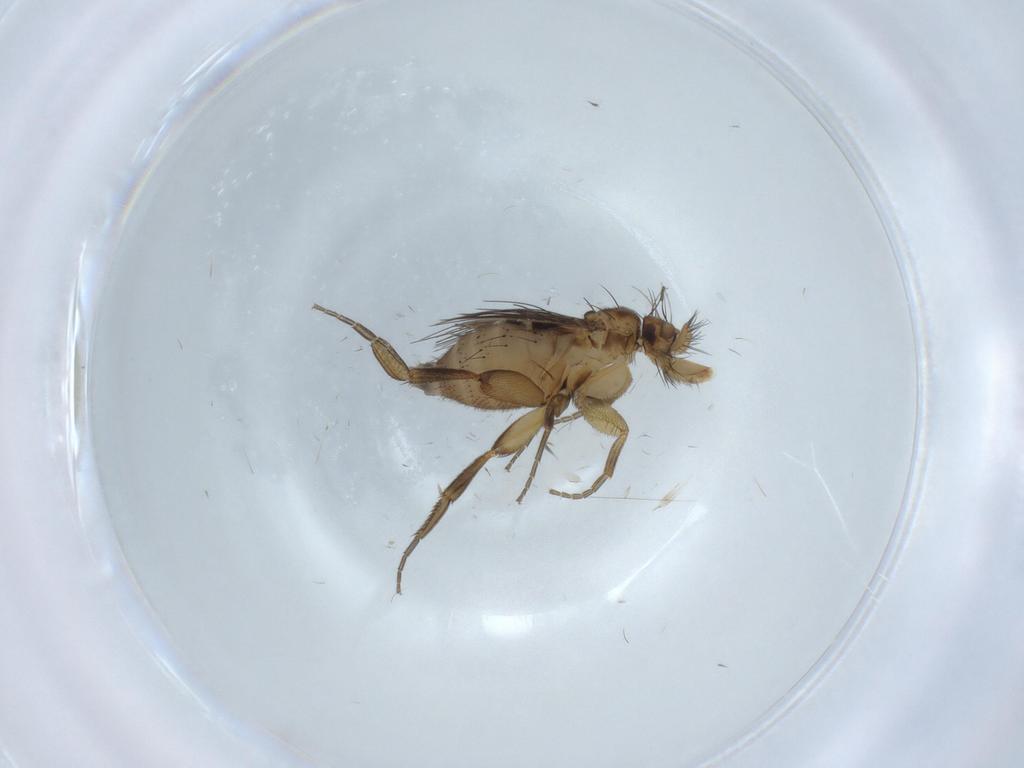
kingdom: Animalia
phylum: Arthropoda
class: Insecta
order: Diptera
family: Phoridae
